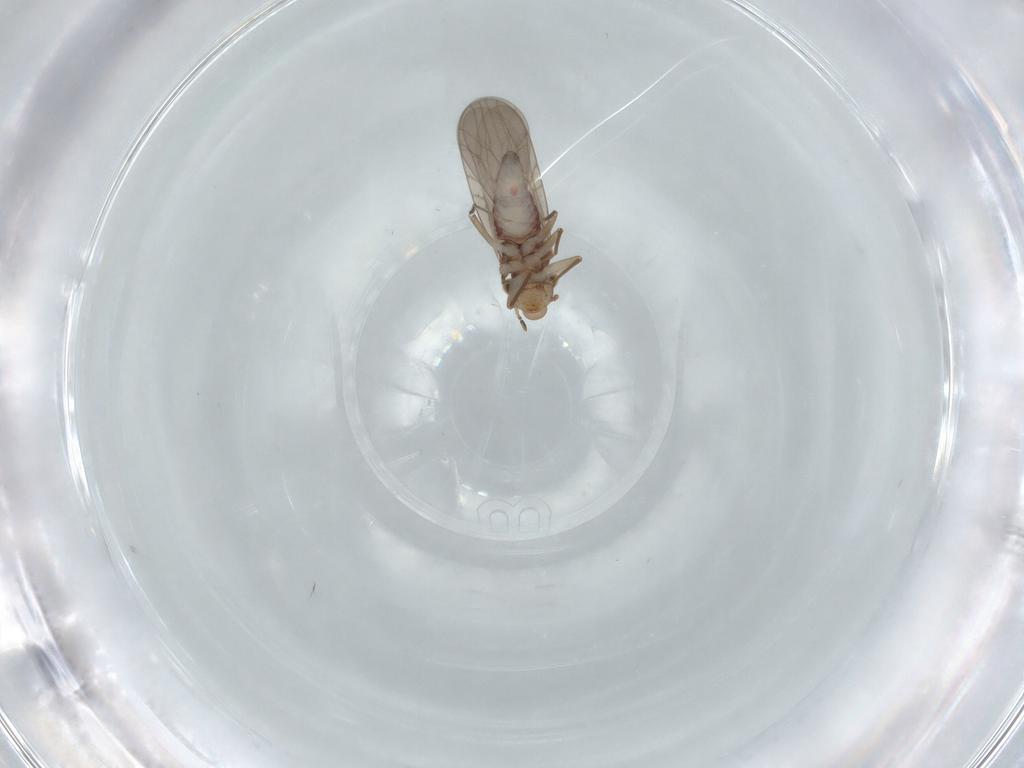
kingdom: Animalia
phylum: Arthropoda
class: Insecta
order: Psocodea
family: Lepidopsocidae
